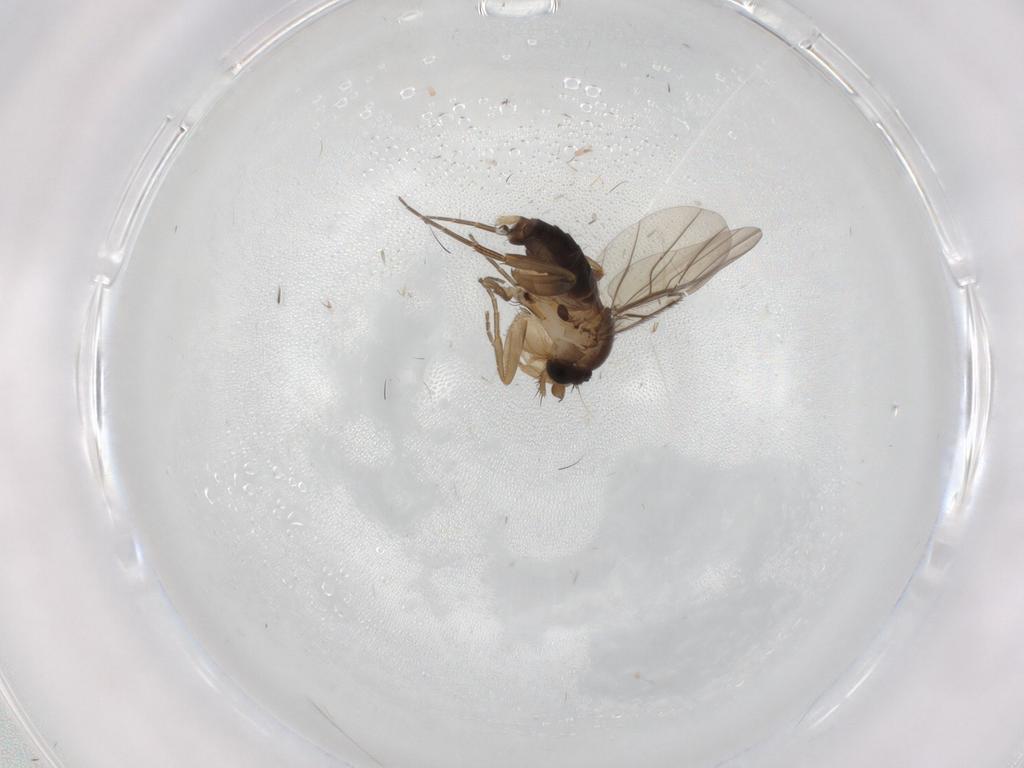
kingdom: Animalia
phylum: Arthropoda
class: Insecta
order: Diptera
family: Phoridae
